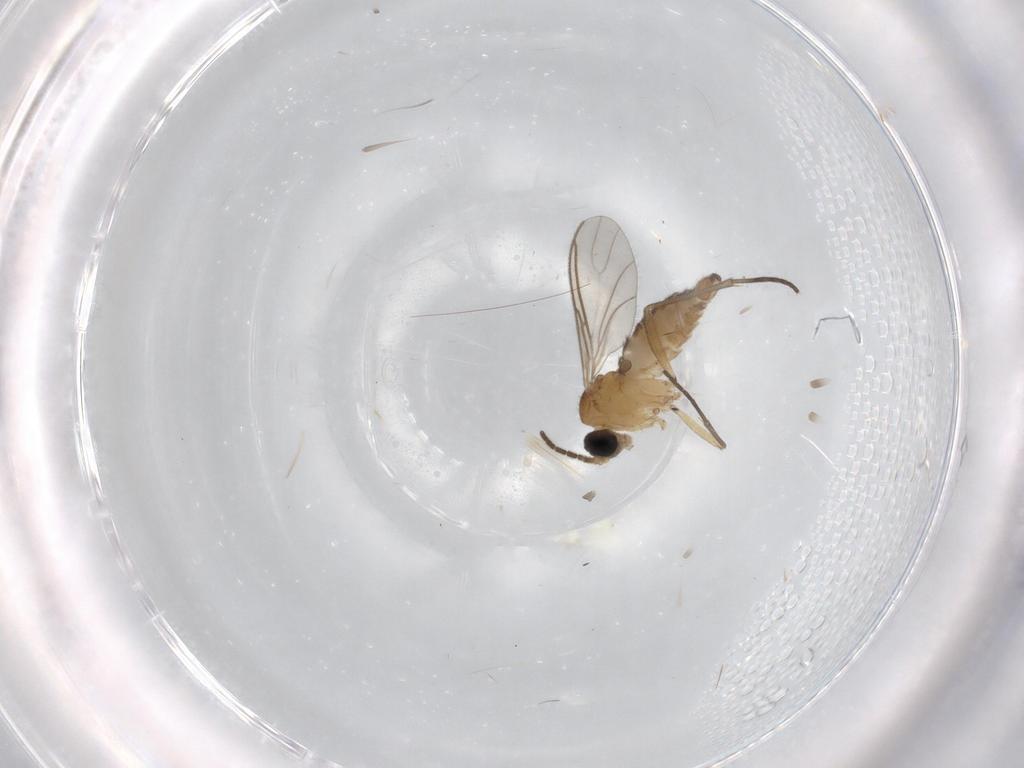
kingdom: Animalia
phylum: Arthropoda
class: Insecta
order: Diptera
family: Sciaridae
